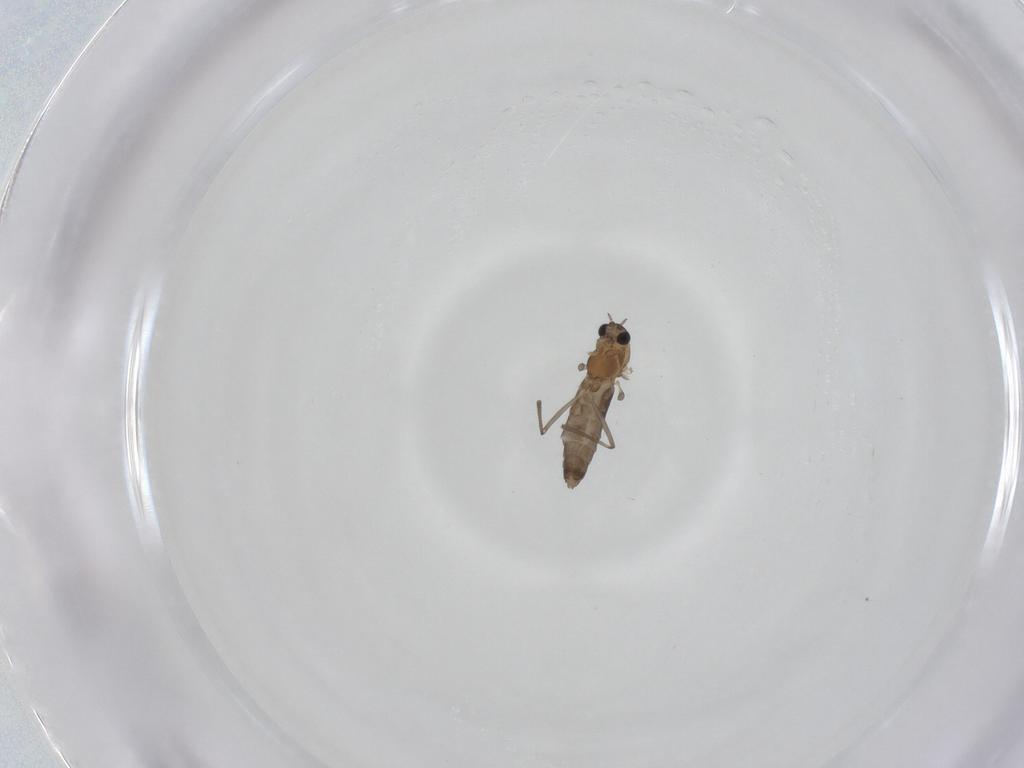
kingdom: Animalia
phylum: Arthropoda
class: Insecta
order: Diptera
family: Chironomidae
